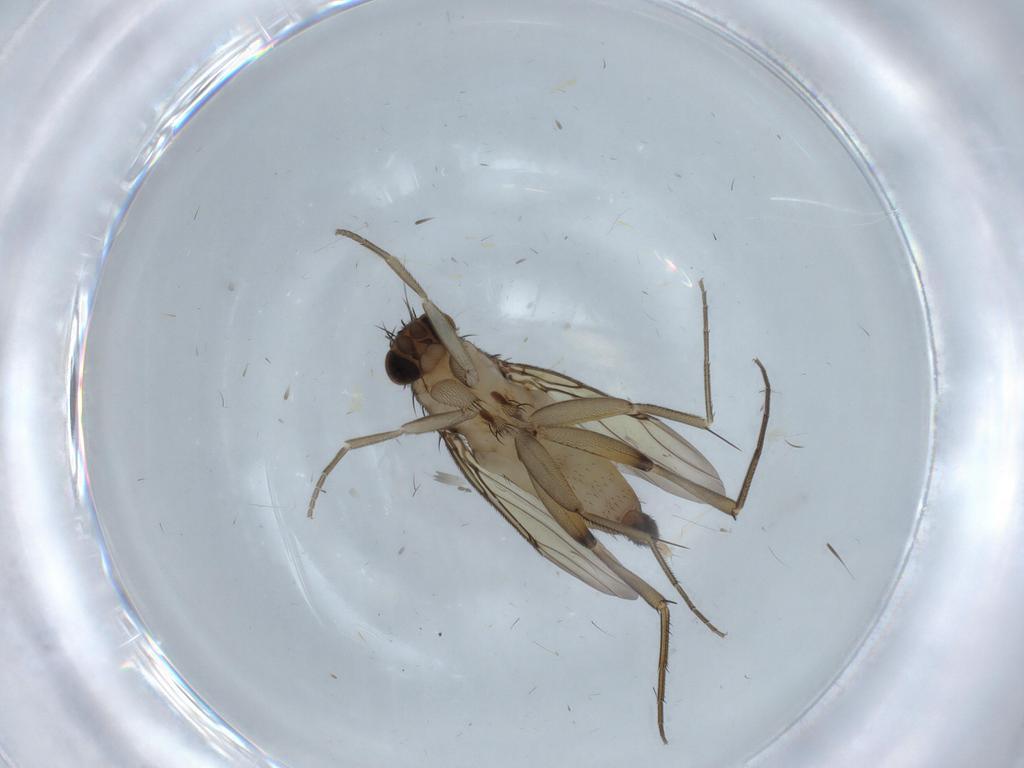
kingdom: Animalia
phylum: Arthropoda
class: Insecta
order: Diptera
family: Phoridae
